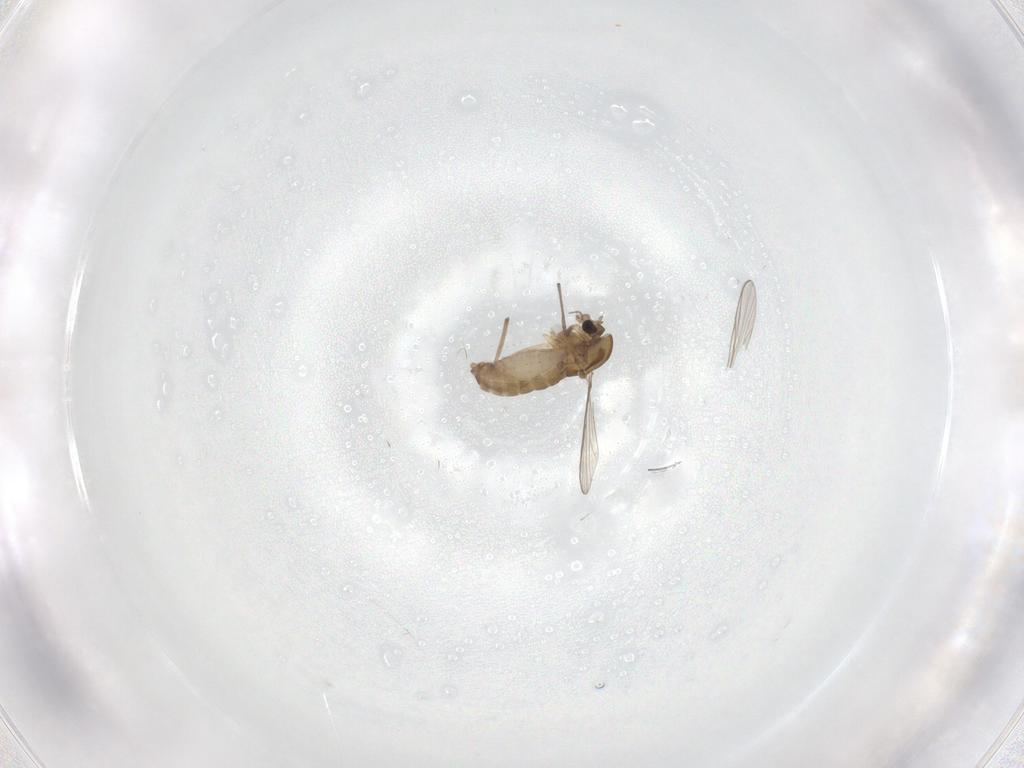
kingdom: Animalia
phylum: Arthropoda
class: Insecta
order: Diptera
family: Chironomidae
